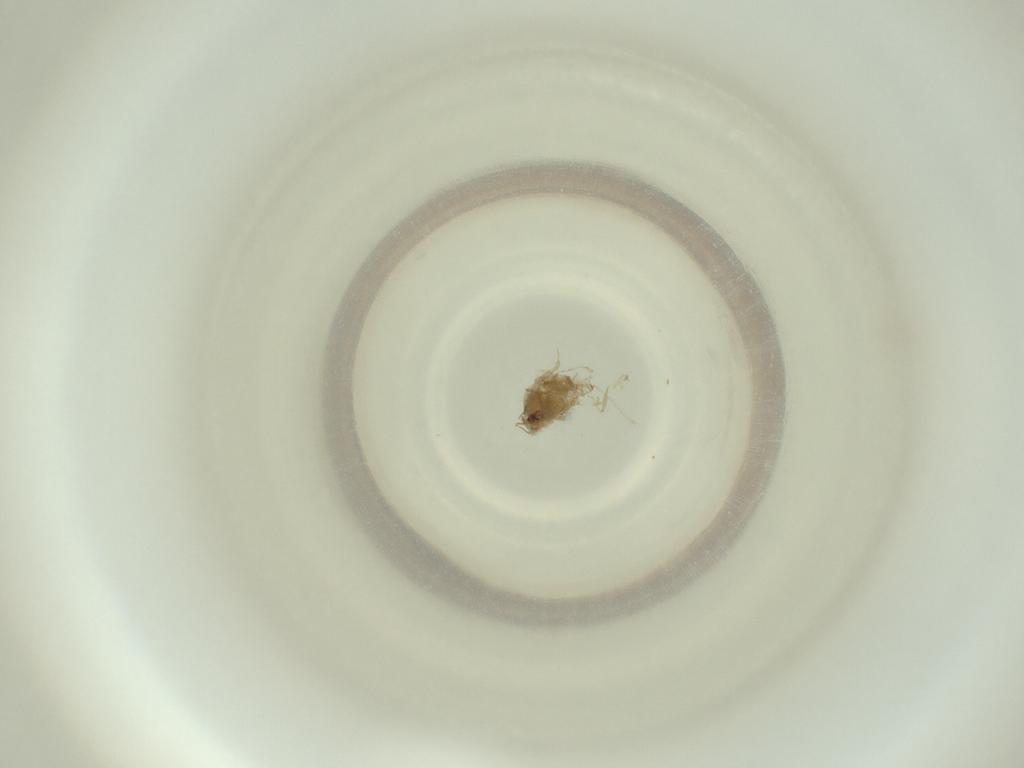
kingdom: Animalia
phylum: Arthropoda
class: Insecta
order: Diptera
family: Cecidomyiidae
